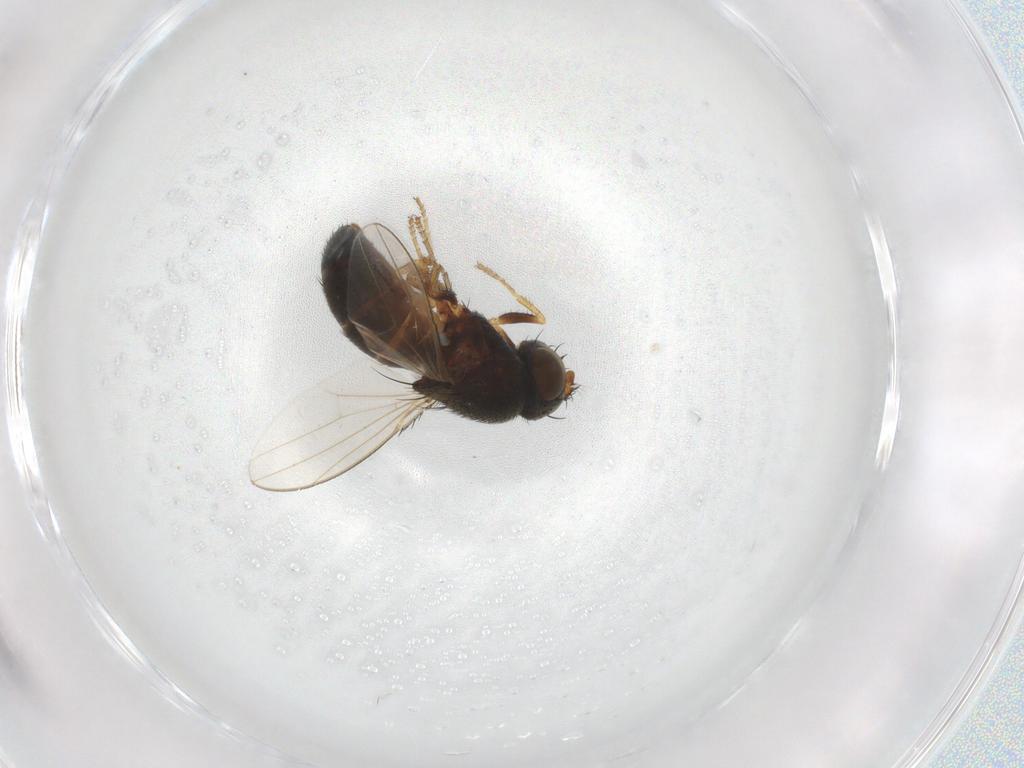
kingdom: Animalia
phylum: Arthropoda
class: Insecta
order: Diptera
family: Ephydridae
